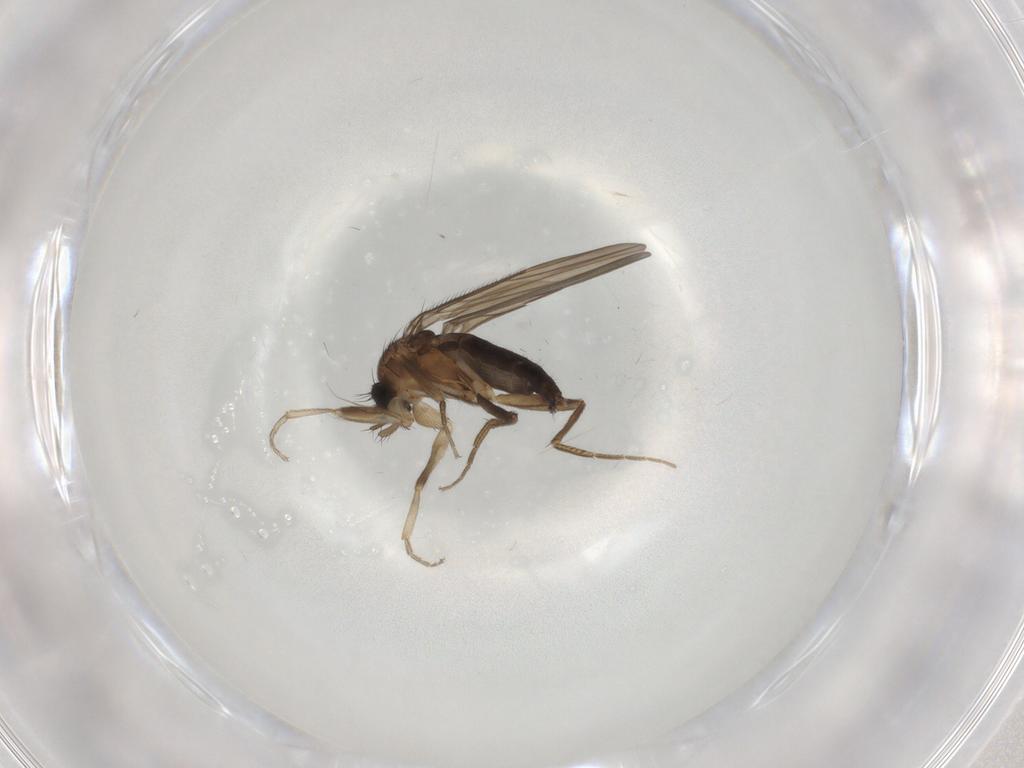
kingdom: Animalia
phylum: Arthropoda
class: Insecta
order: Diptera
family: Phoridae
